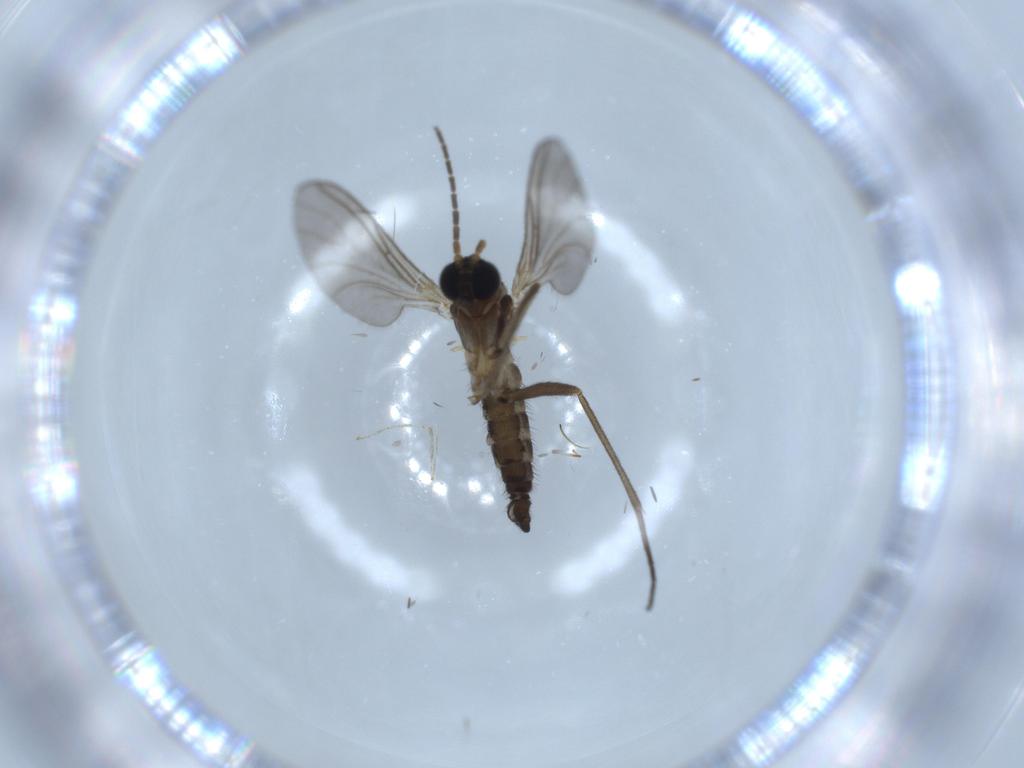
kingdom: Animalia
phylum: Arthropoda
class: Insecta
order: Diptera
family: Sciaridae
